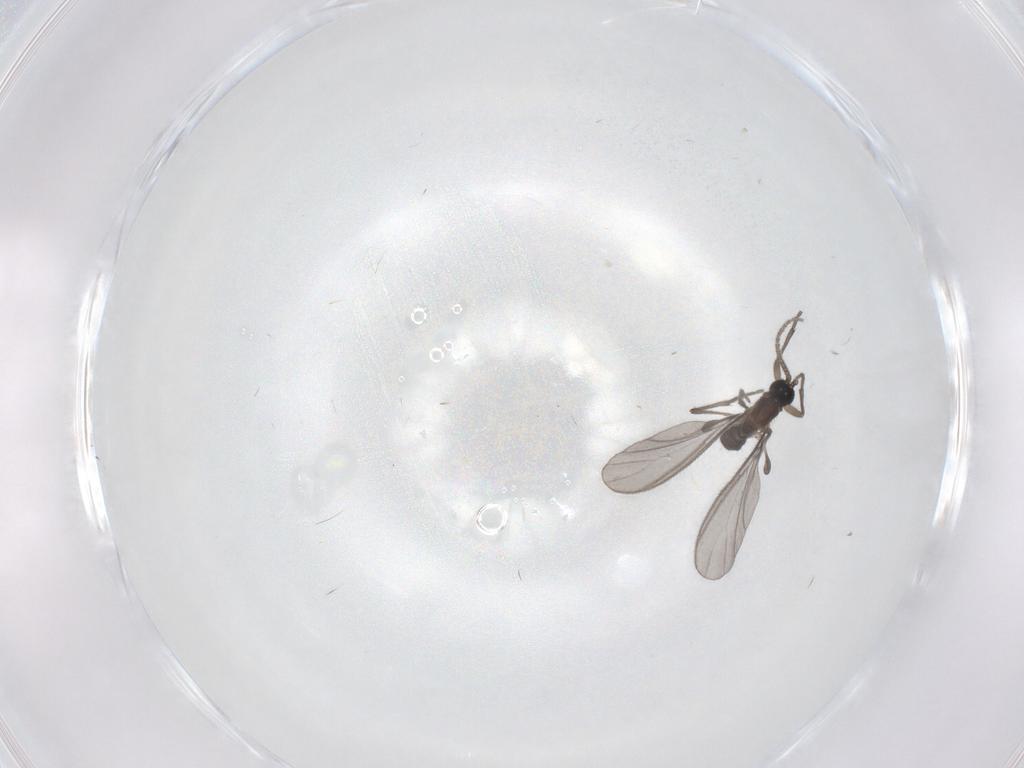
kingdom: Animalia
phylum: Arthropoda
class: Insecta
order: Diptera
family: Sciaridae
